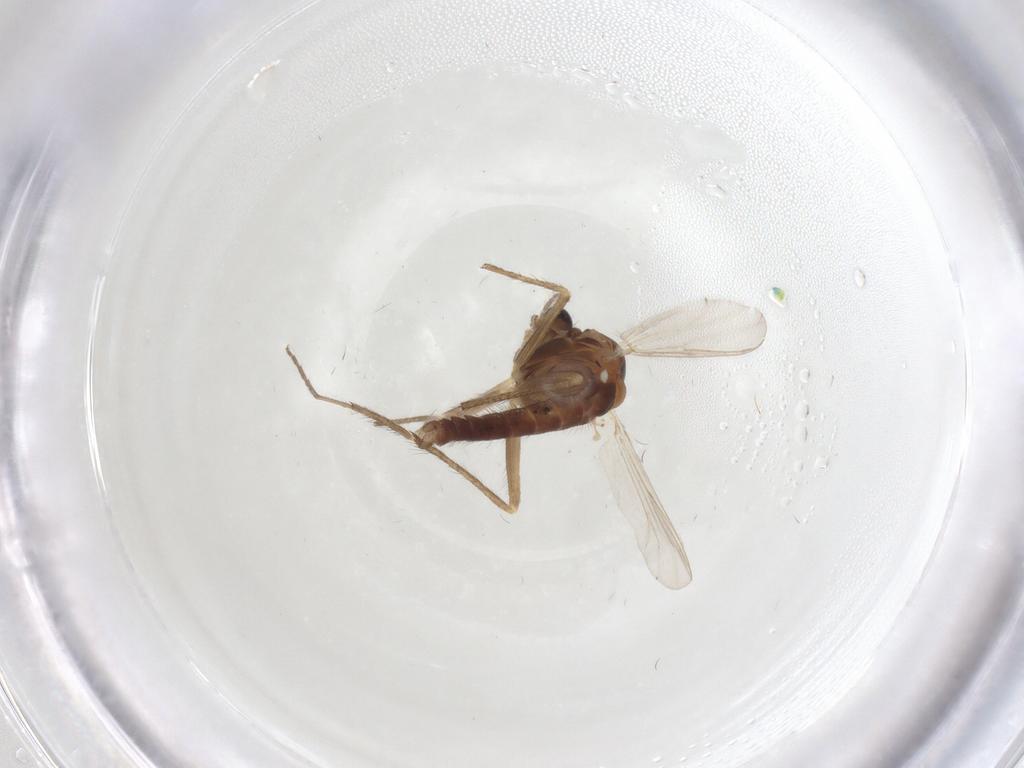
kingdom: Animalia
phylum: Arthropoda
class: Insecta
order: Diptera
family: Chironomidae
